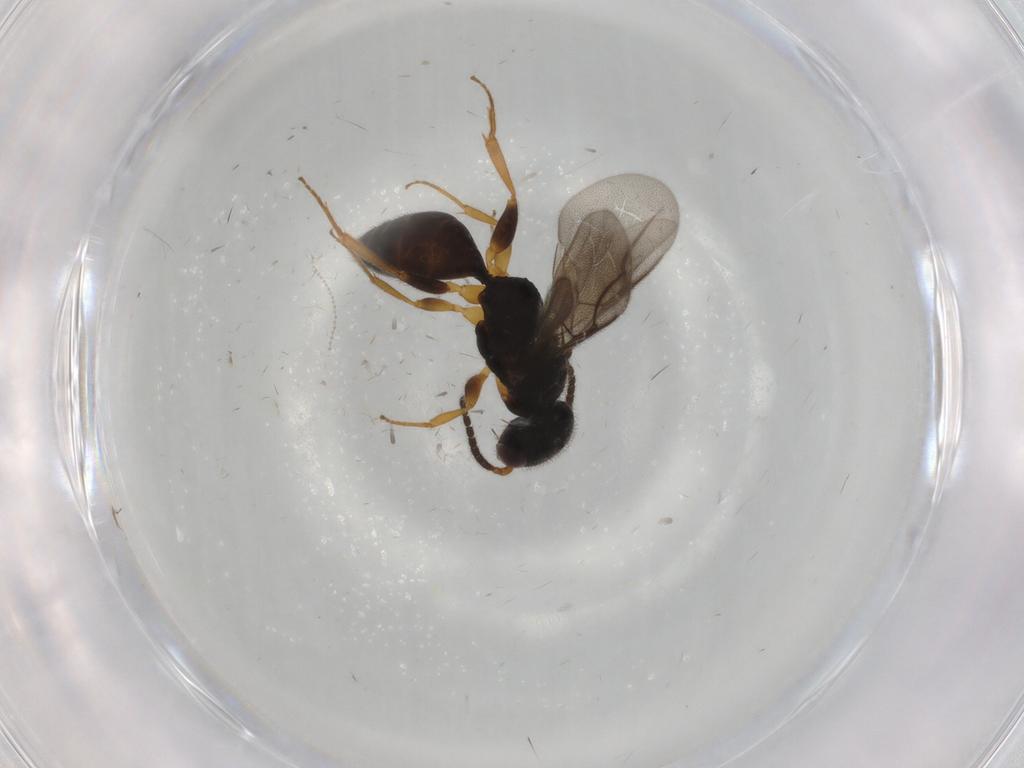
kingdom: Animalia
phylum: Arthropoda
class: Insecta
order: Hymenoptera
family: Bethylidae
